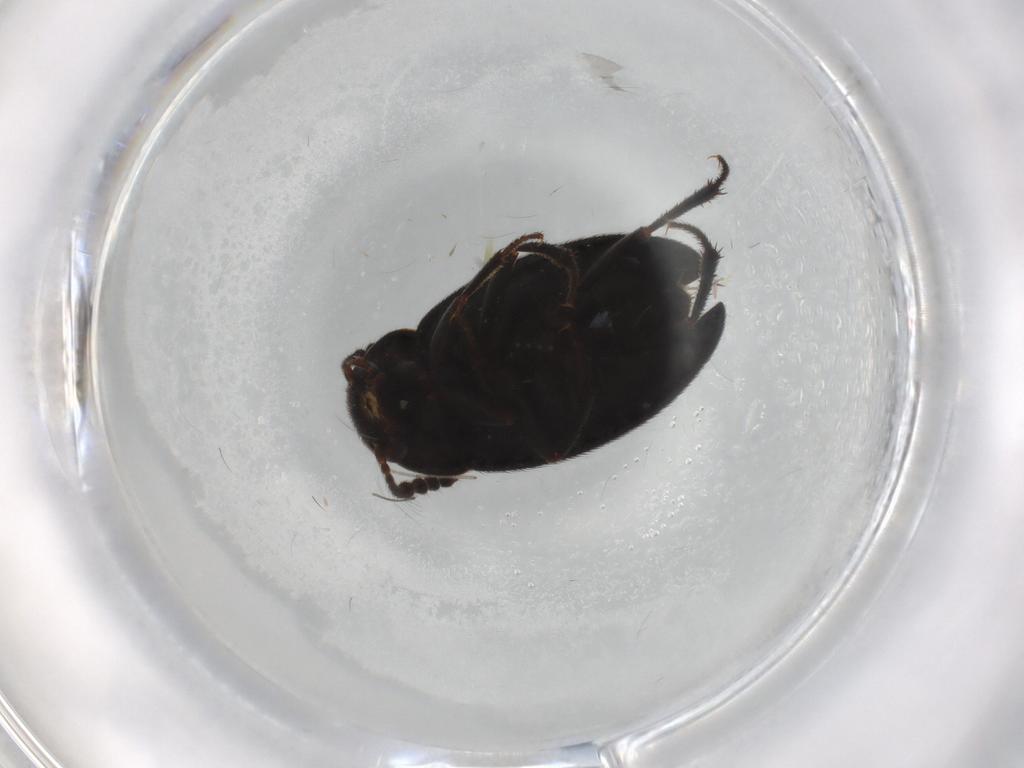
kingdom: Animalia
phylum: Arthropoda
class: Insecta
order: Coleoptera
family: Leiodidae
